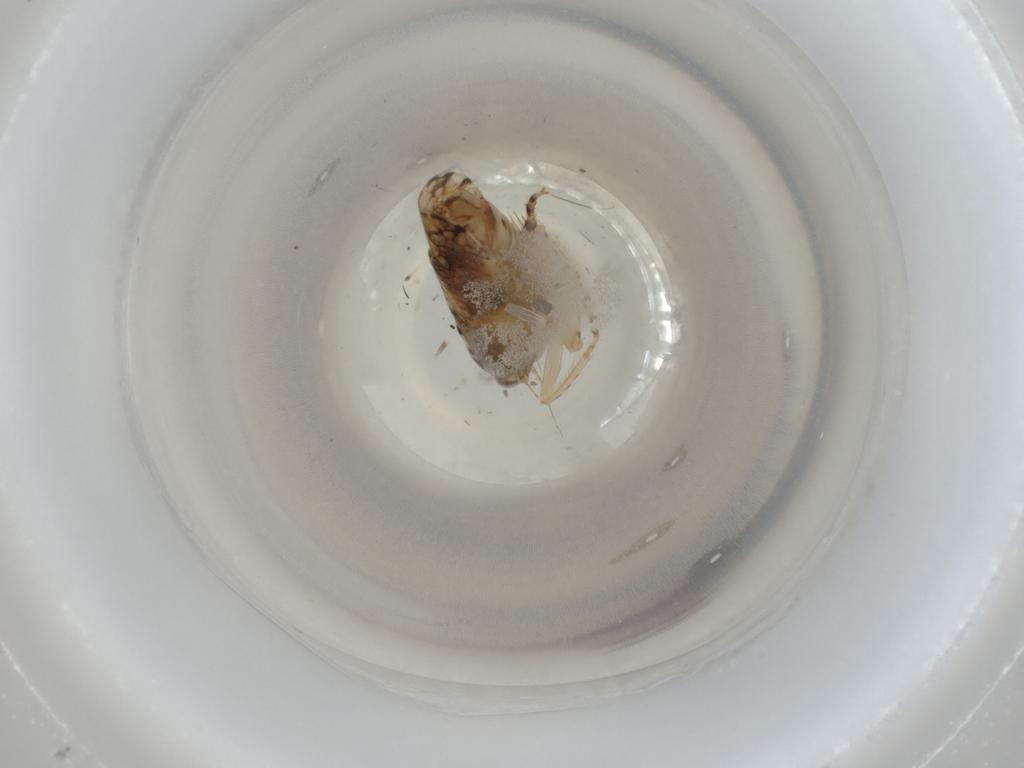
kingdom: Animalia
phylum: Arthropoda
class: Insecta
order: Hemiptera
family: Cicadellidae
